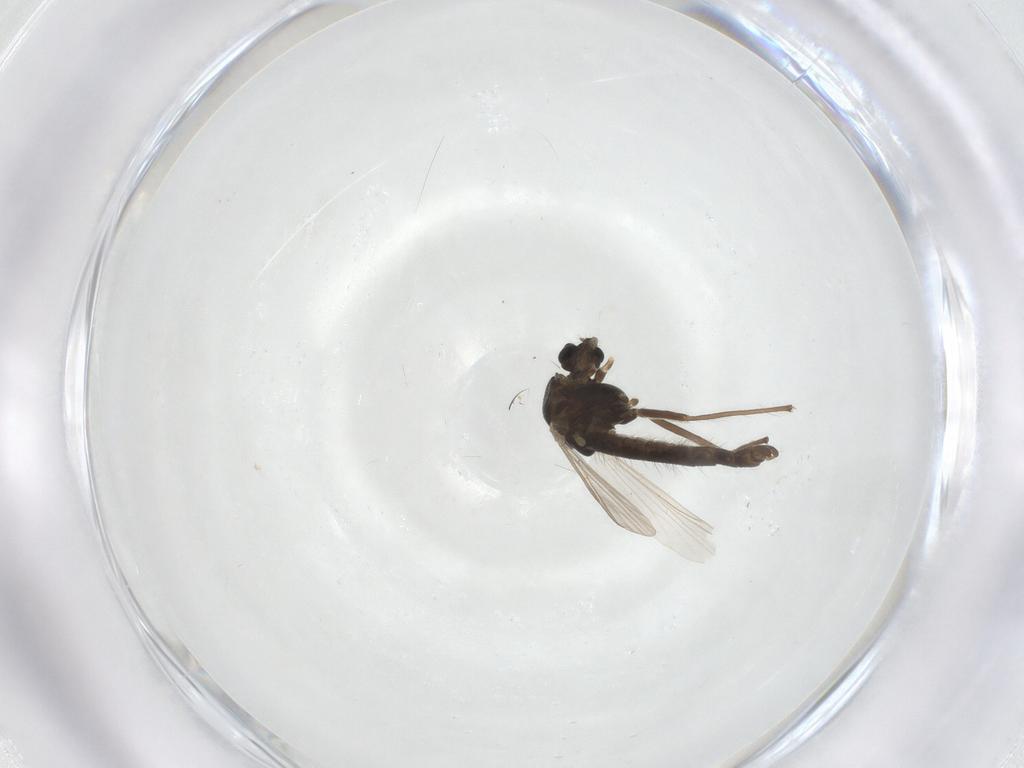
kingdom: Animalia
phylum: Arthropoda
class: Insecta
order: Diptera
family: Chironomidae
